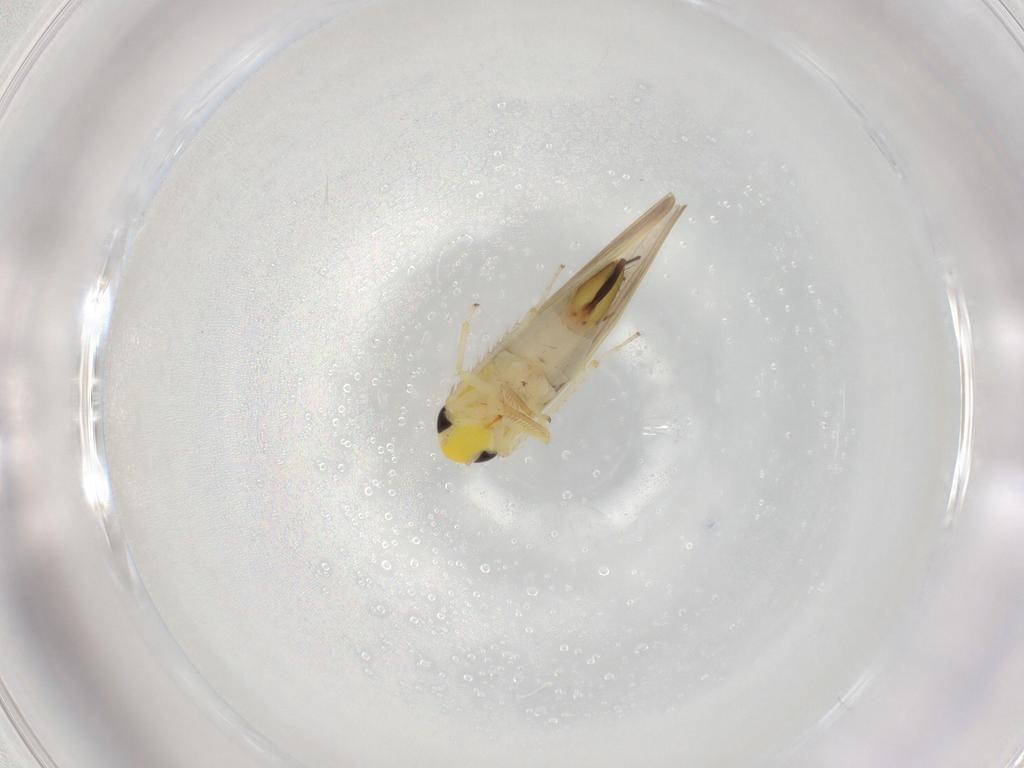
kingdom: Animalia
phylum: Arthropoda
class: Insecta
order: Hemiptera
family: Cicadellidae
